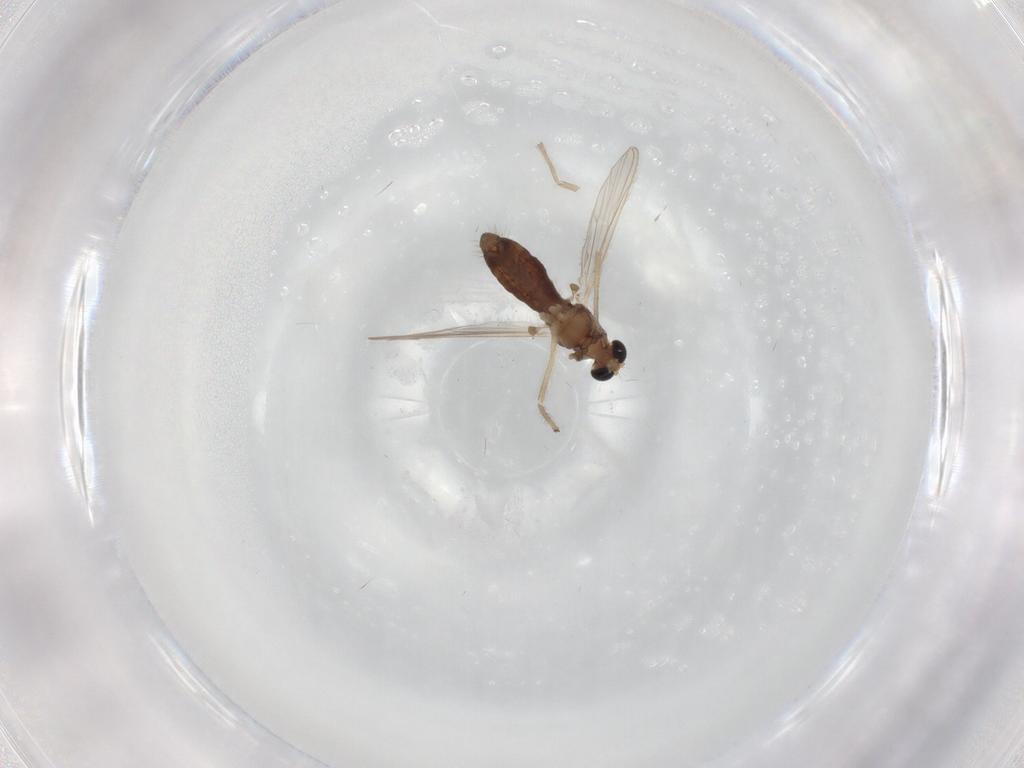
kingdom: Animalia
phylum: Arthropoda
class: Insecta
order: Diptera
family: Chironomidae
